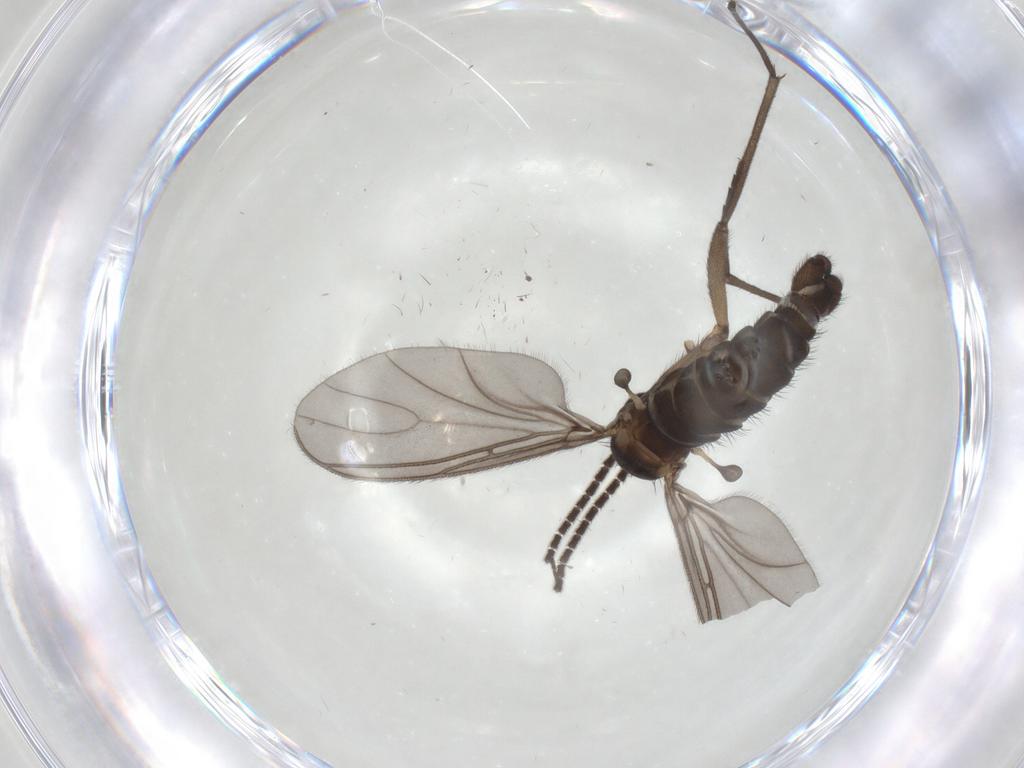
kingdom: Animalia
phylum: Arthropoda
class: Insecta
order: Diptera
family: Sciaridae
